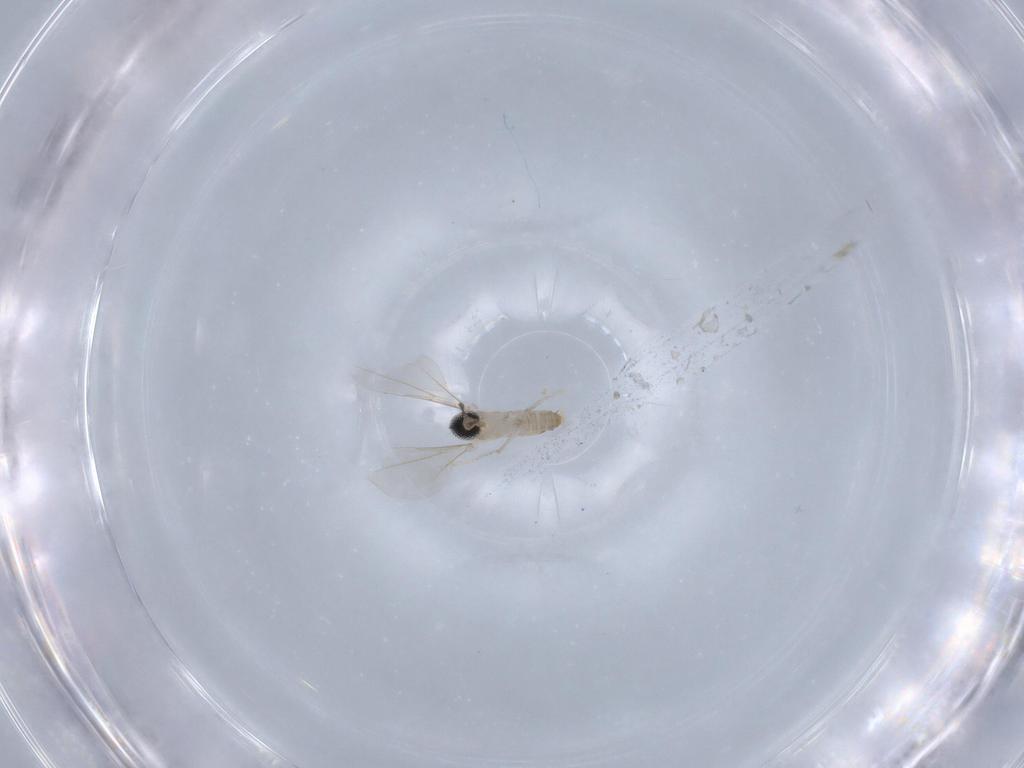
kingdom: Animalia
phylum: Arthropoda
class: Insecta
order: Diptera
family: Cecidomyiidae
